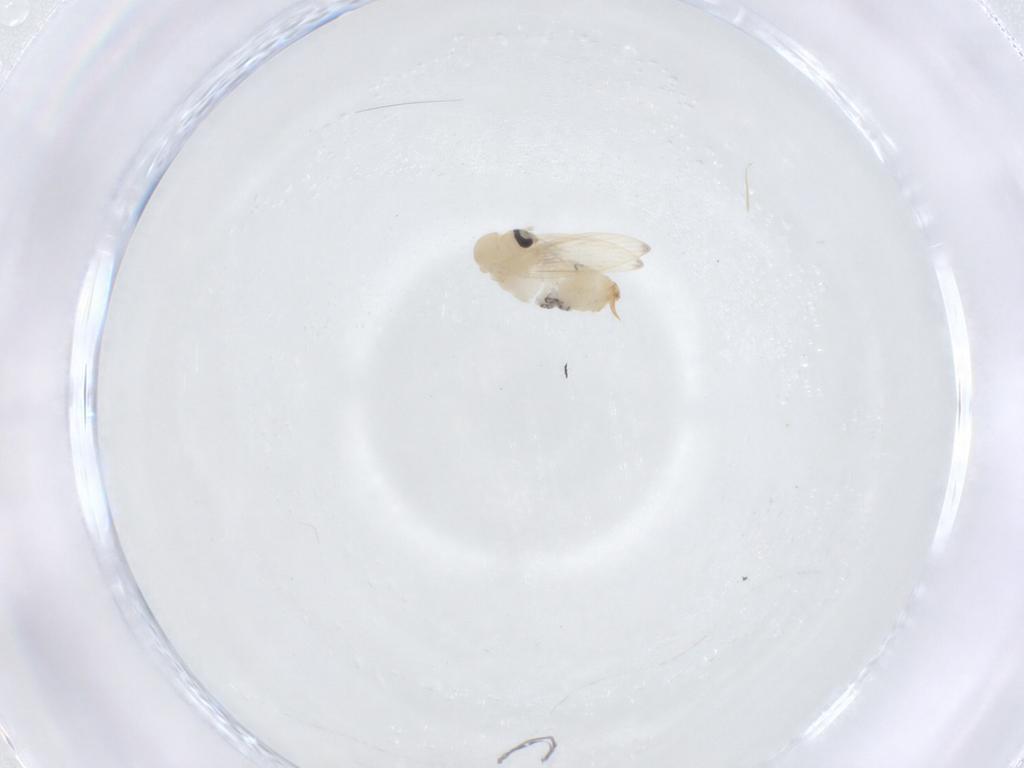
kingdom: Animalia
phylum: Arthropoda
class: Insecta
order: Diptera
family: Psychodidae
